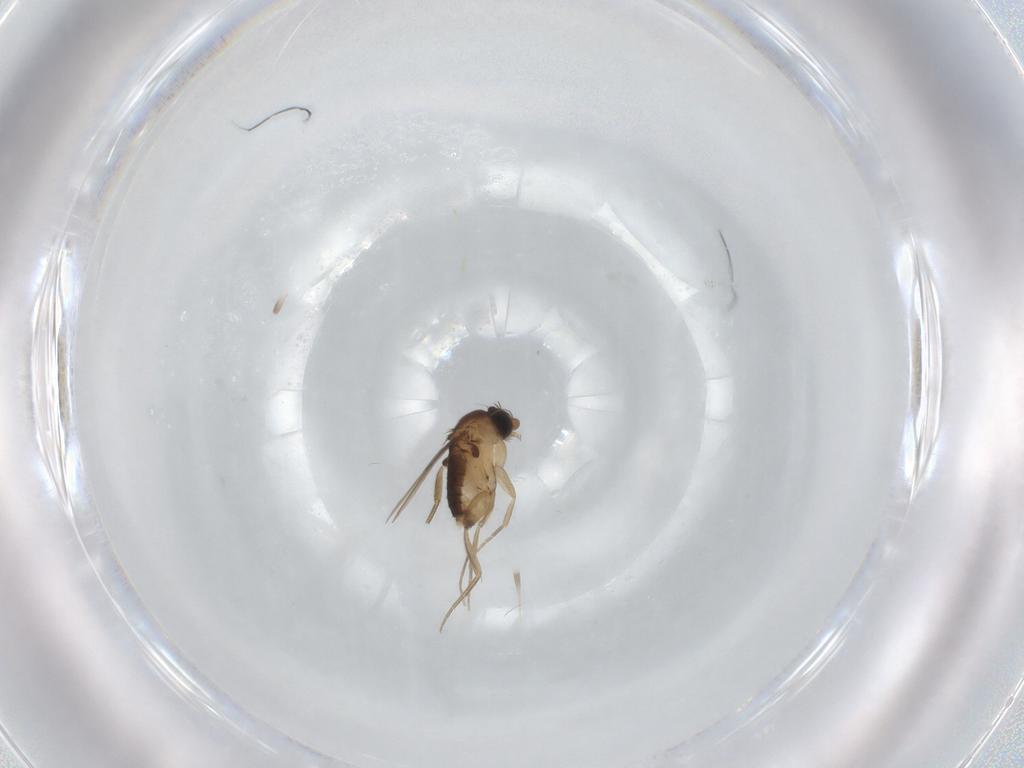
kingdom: Animalia
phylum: Arthropoda
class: Insecta
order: Diptera
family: Phoridae
